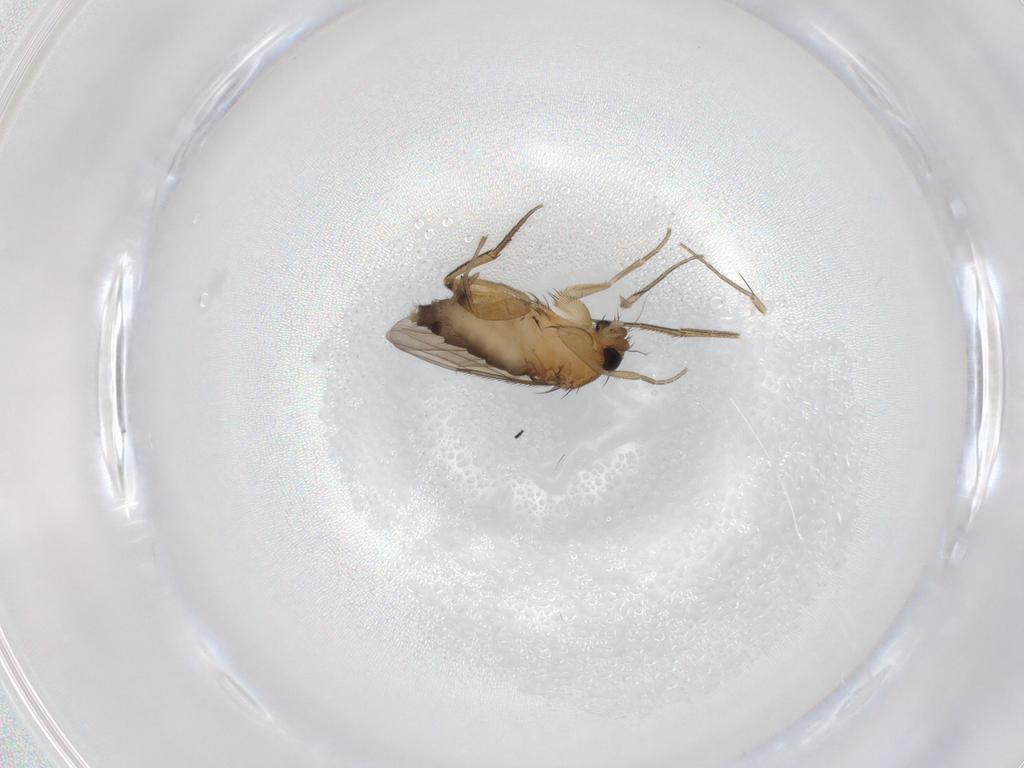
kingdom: Animalia
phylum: Arthropoda
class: Insecta
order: Diptera
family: Phoridae
